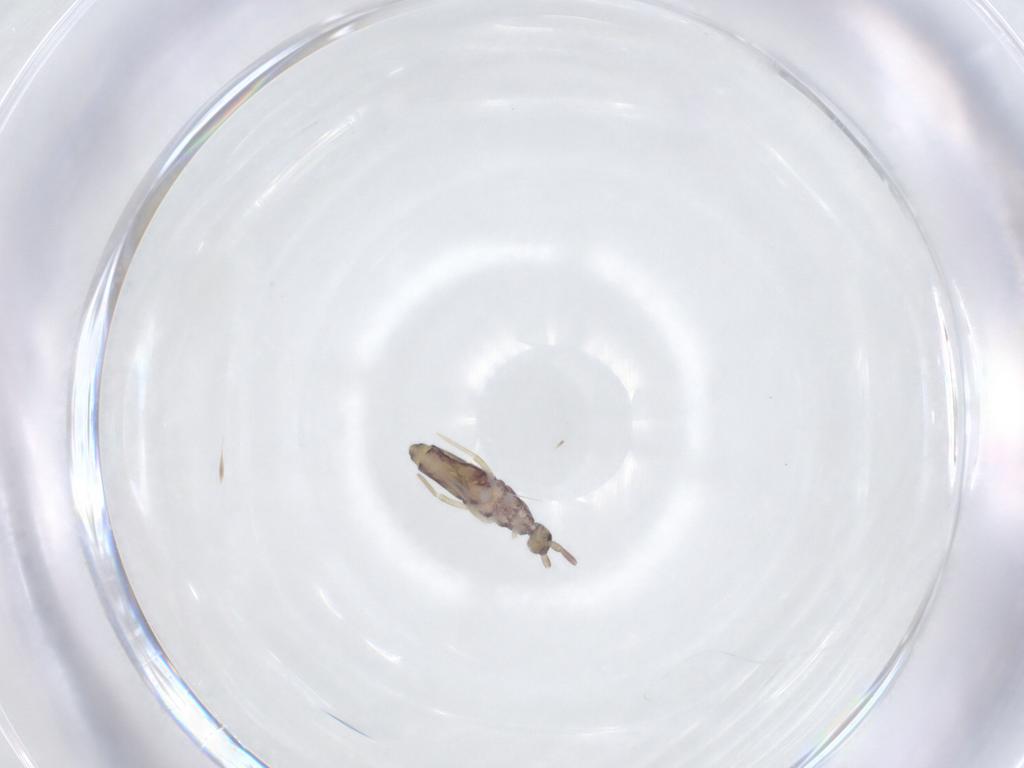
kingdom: Animalia
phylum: Arthropoda
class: Collembola
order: Entomobryomorpha
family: Entomobryidae
